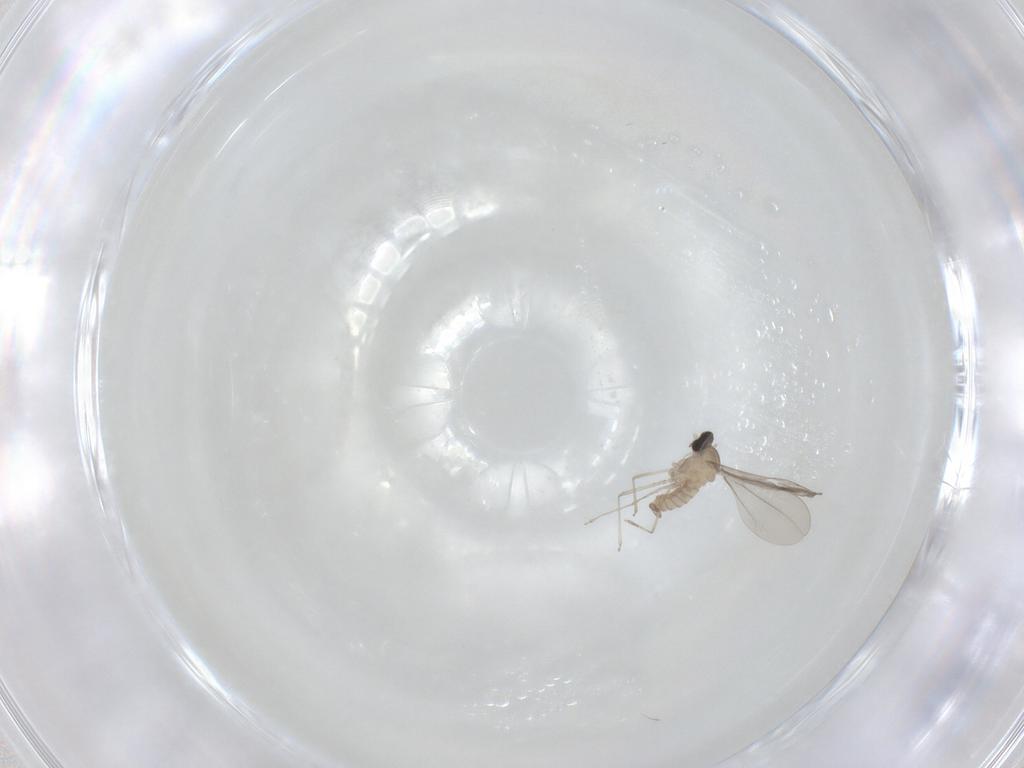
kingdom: Animalia
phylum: Arthropoda
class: Insecta
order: Diptera
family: Cecidomyiidae
